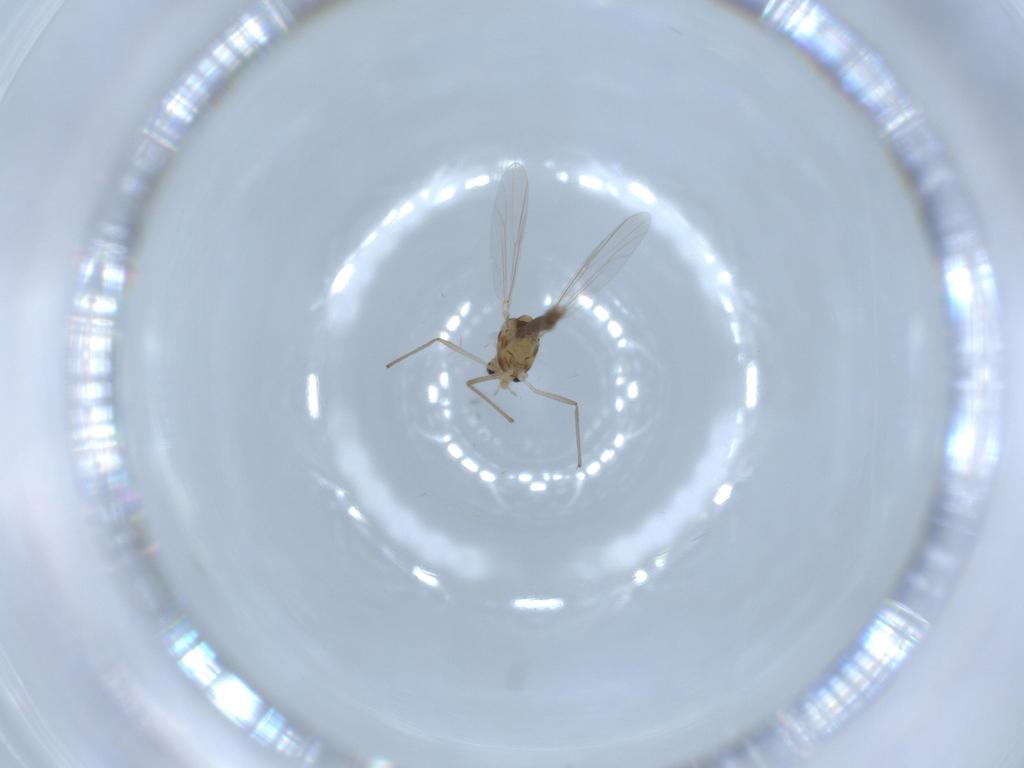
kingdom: Animalia
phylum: Arthropoda
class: Insecta
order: Diptera
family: Chironomidae
